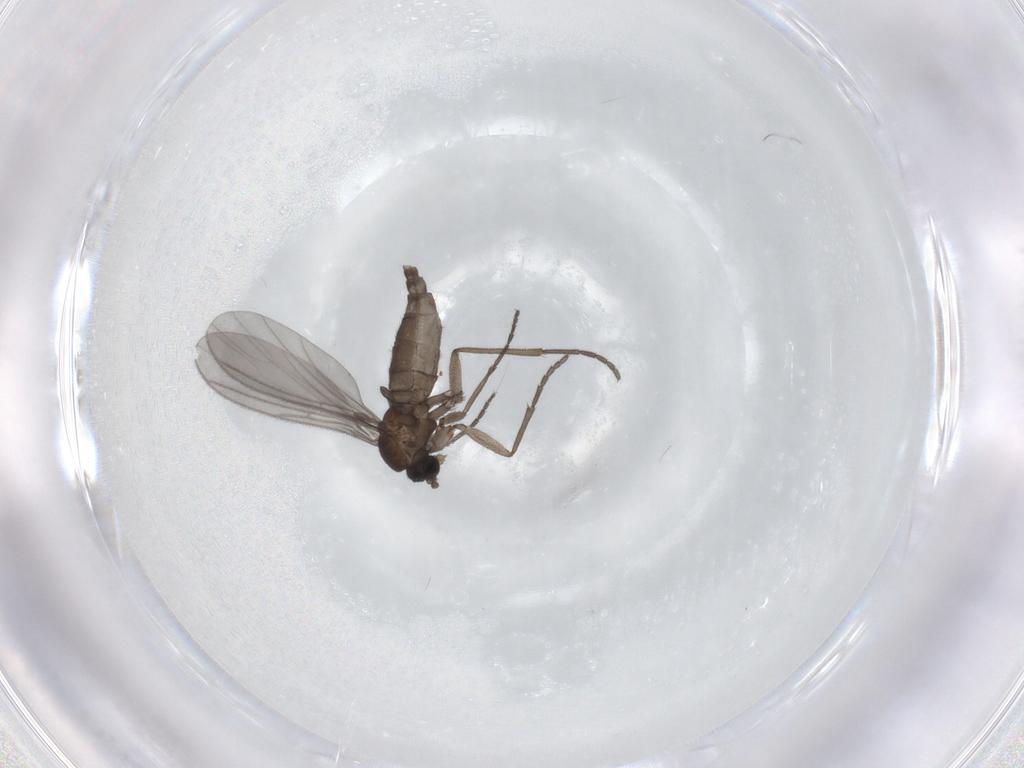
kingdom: Animalia
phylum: Arthropoda
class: Insecta
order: Diptera
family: Sciaridae
